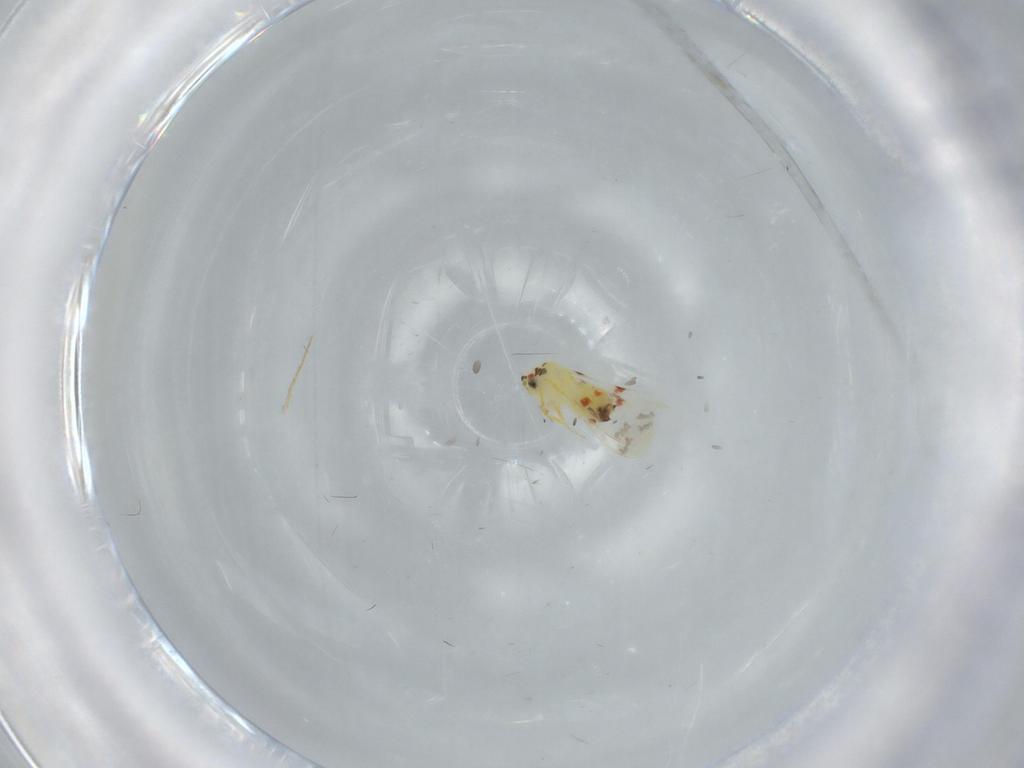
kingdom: Animalia
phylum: Arthropoda
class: Insecta
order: Hemiptera
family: Aleyrodidae
